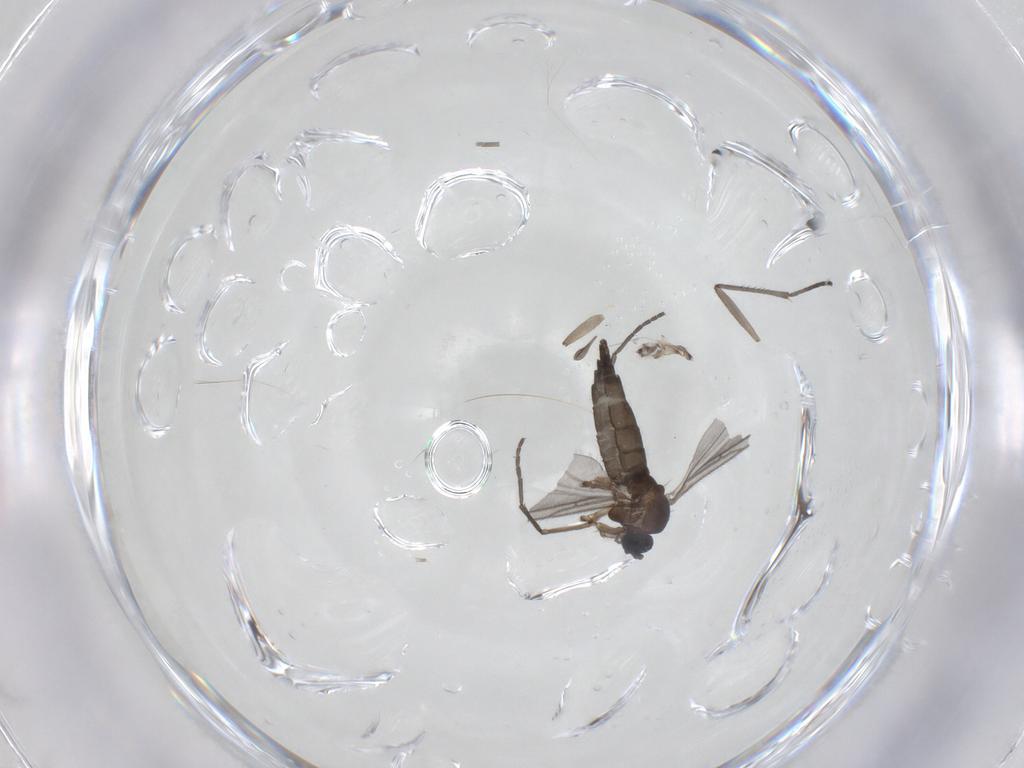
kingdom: Animalia
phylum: Arthropoda
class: Insecta
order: Diptera
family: Sciaridae
